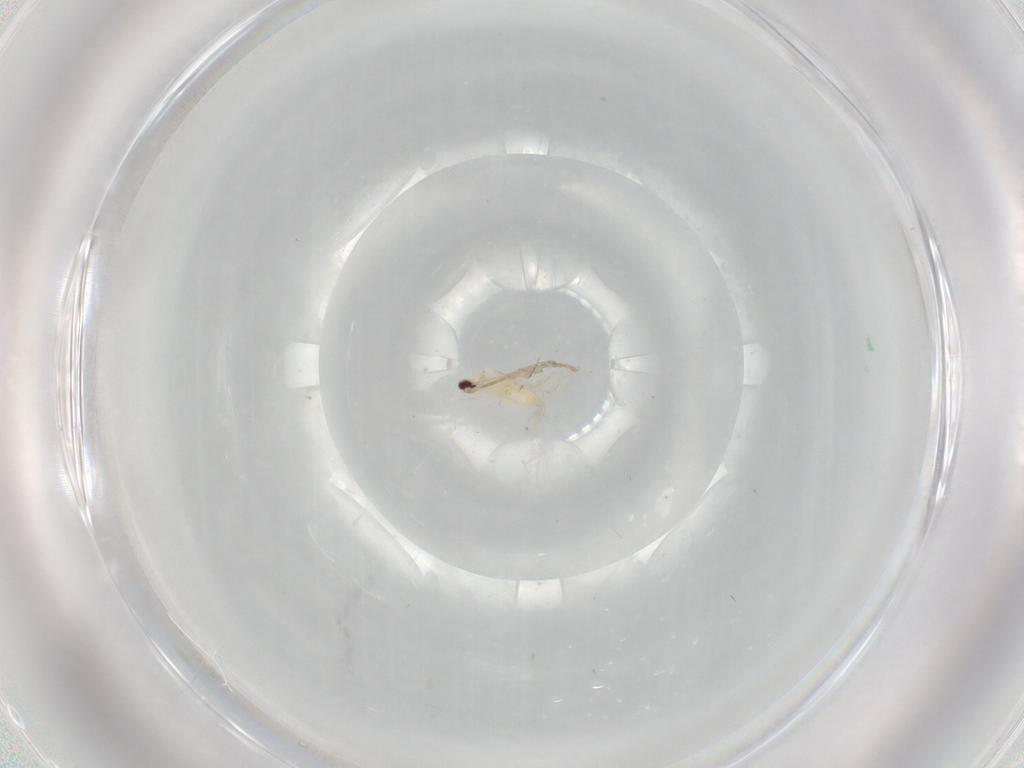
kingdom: Animalia
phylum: Arthropoda
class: Insecta
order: Diptera
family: Cecidomyiidae
